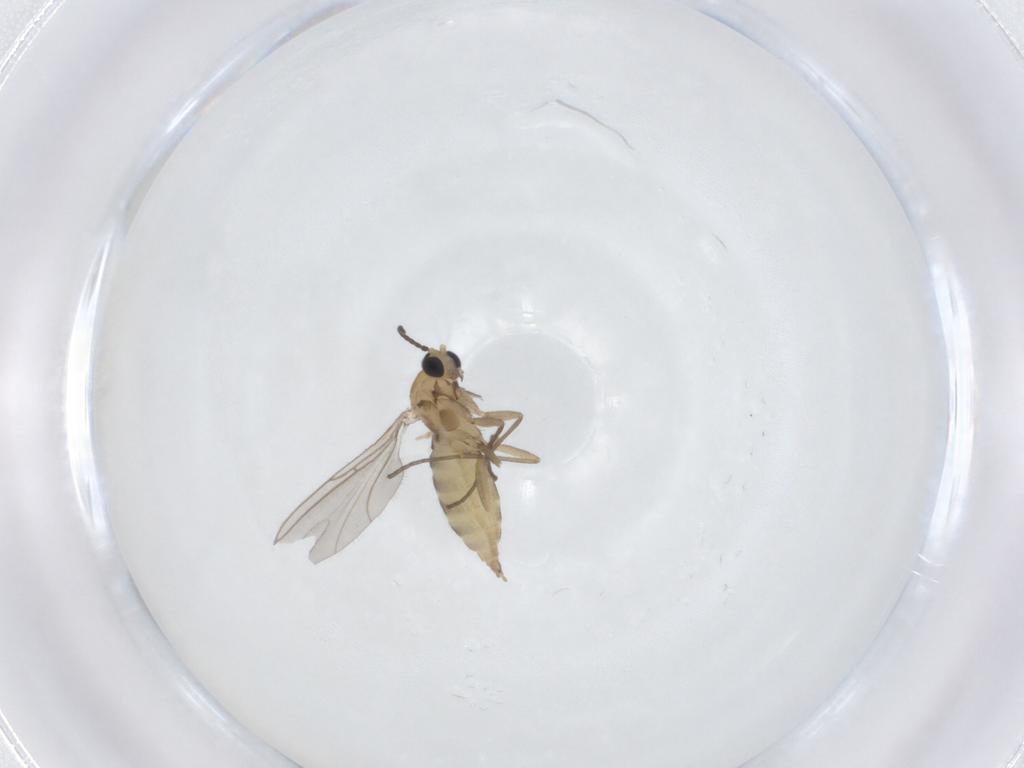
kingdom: Animalia
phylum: Arthropoda
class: Insecta
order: Diptera
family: Sciaridae
